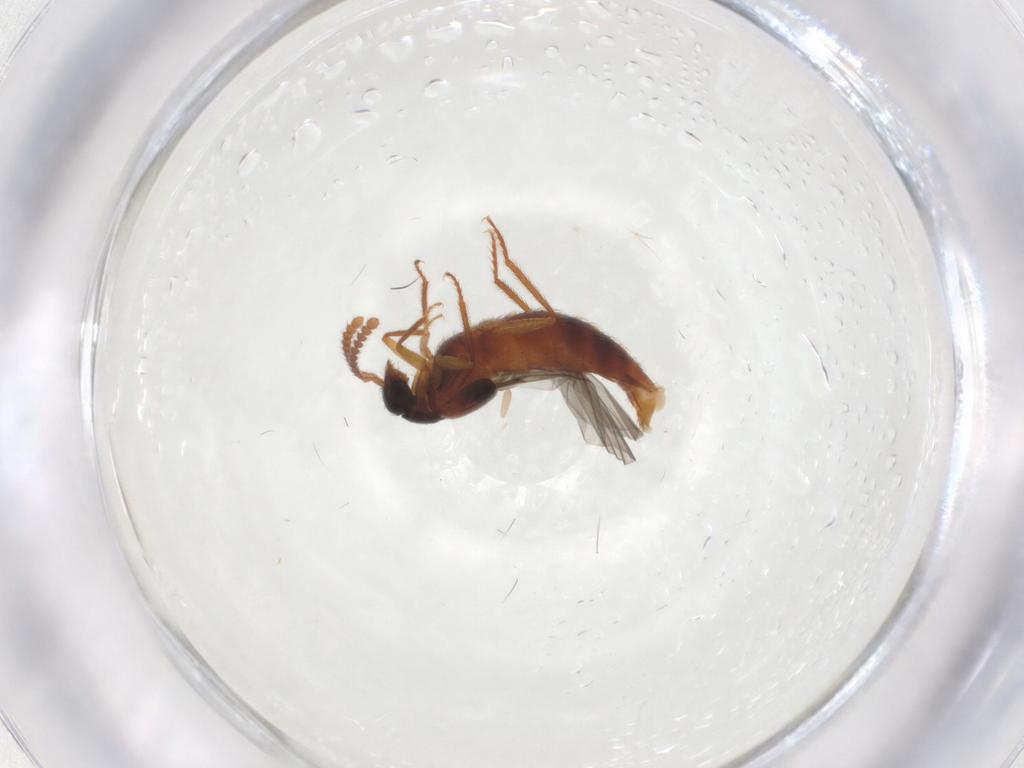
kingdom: Animalia
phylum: Arthropoda
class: Insecta
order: Coleoptera
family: Staphylinidae
